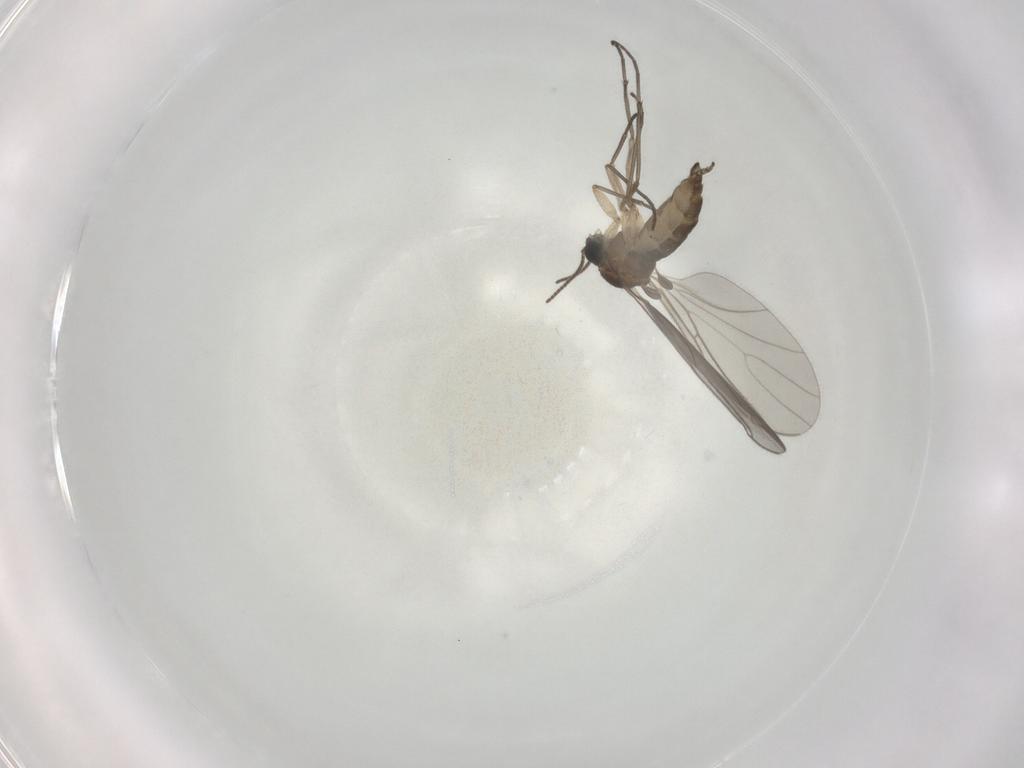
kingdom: Animalia
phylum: Arthropoda
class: Insecta
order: Diptera
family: Sciaridae
